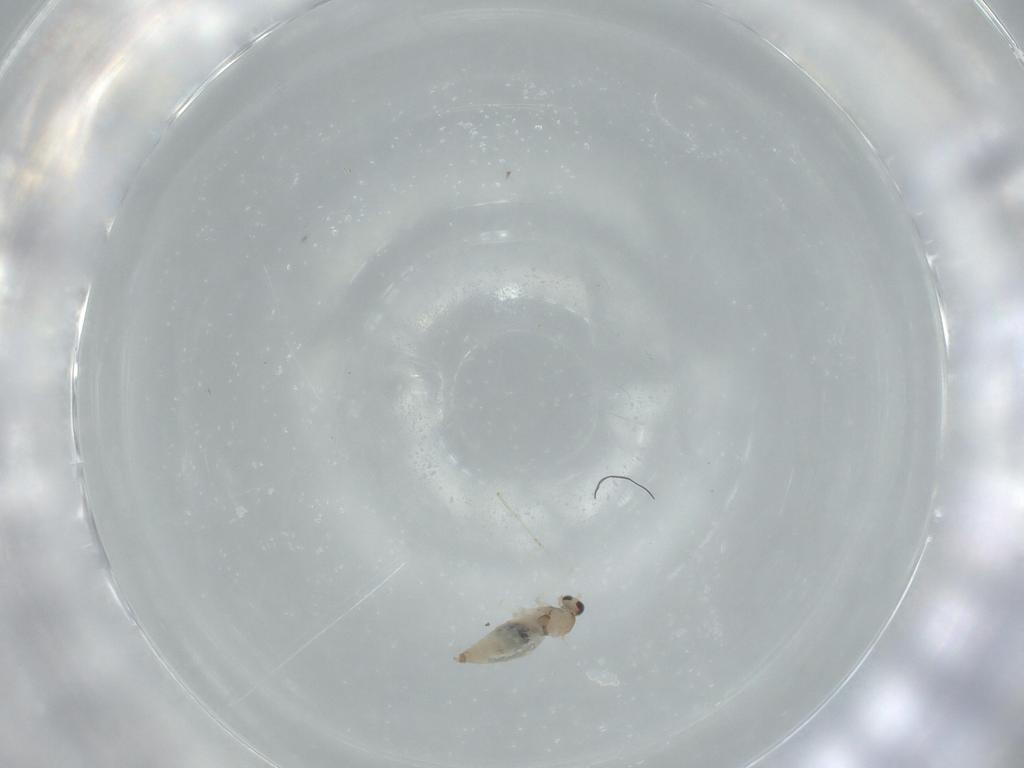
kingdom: Animalia
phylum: Arthropoda
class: Insecta
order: Diptera
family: Cecidomyiidae
